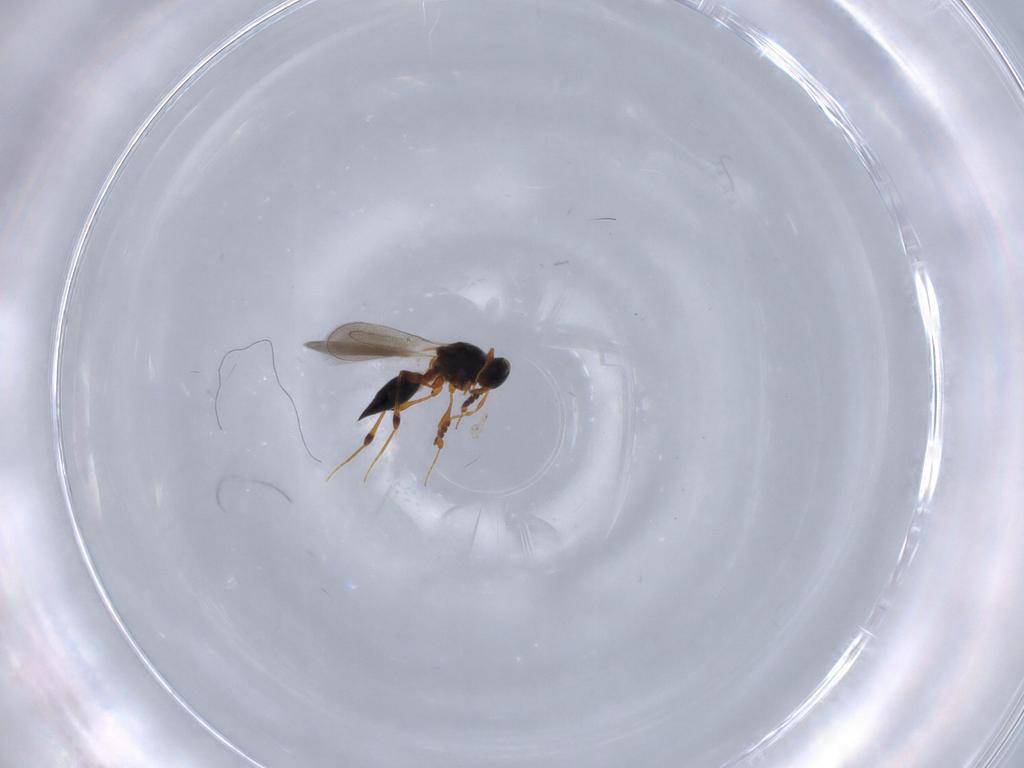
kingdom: Animalia
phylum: Arthropoda
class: Insecta
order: Hymenoptera
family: Platygastridae
